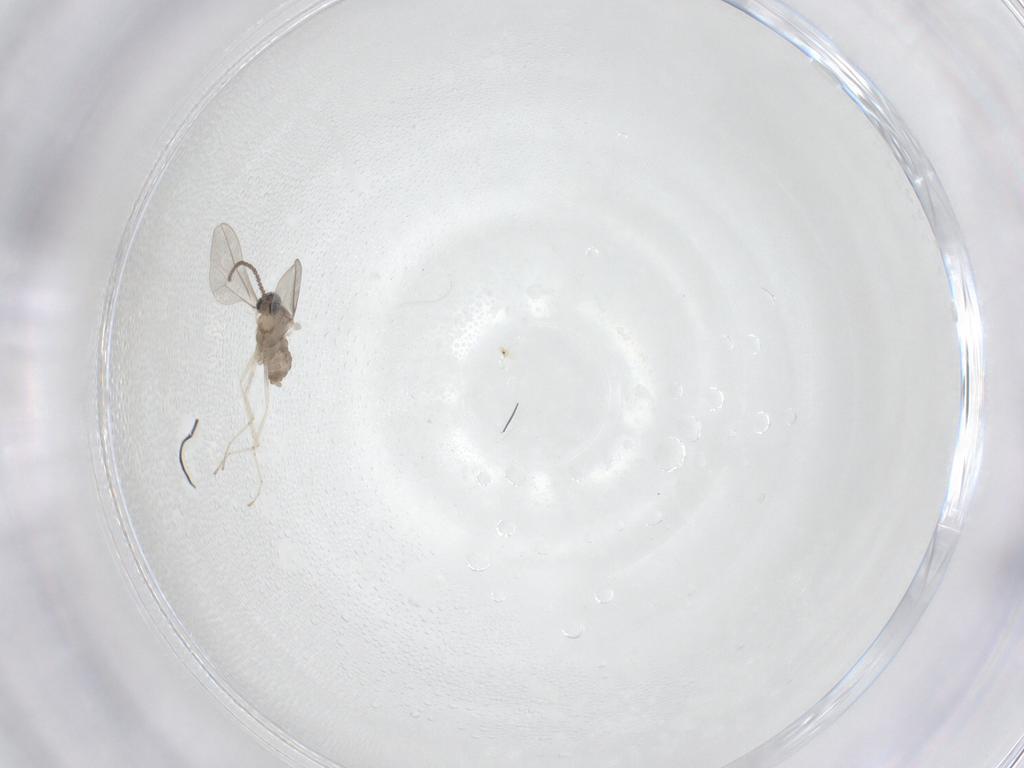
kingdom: Animalia
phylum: Arthropoda
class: Insecta
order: Diptera
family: Cecidomyiidae
